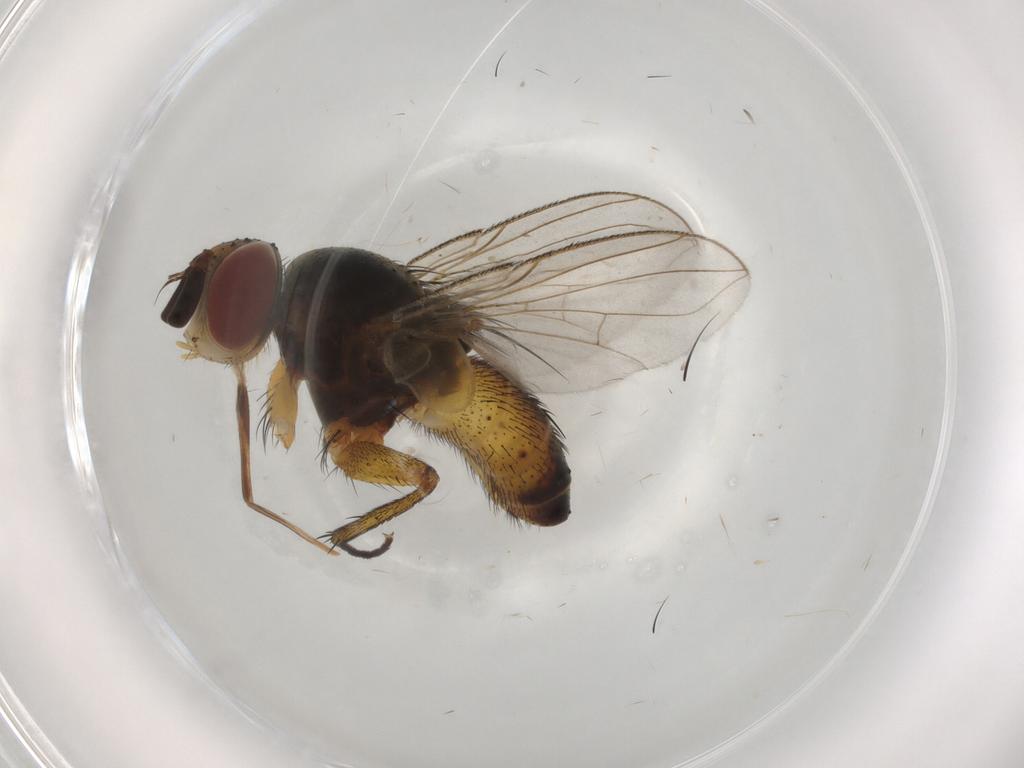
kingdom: Animalia
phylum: Arthropoda
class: Insecta
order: Diptera
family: Tachinidae
